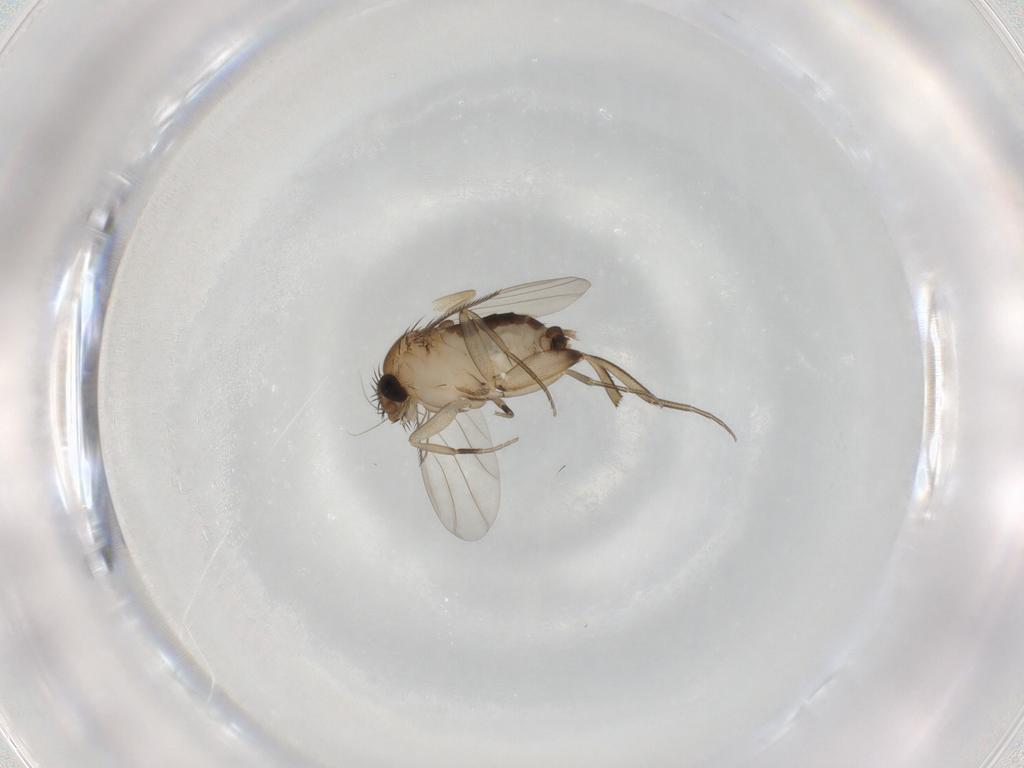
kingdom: Animalia
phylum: Arthropoda
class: Insecta
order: Diptera
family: Phoridae
